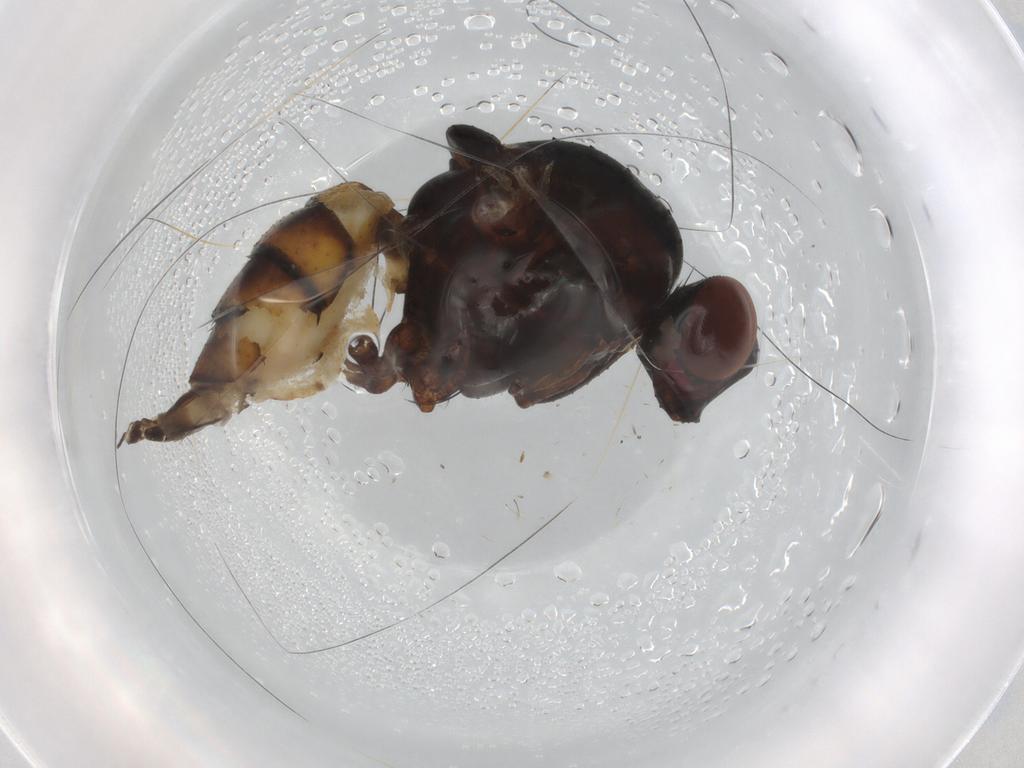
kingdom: Animalia
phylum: Arthropoda
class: Insecta
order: Diptera
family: Anthomyiidae
